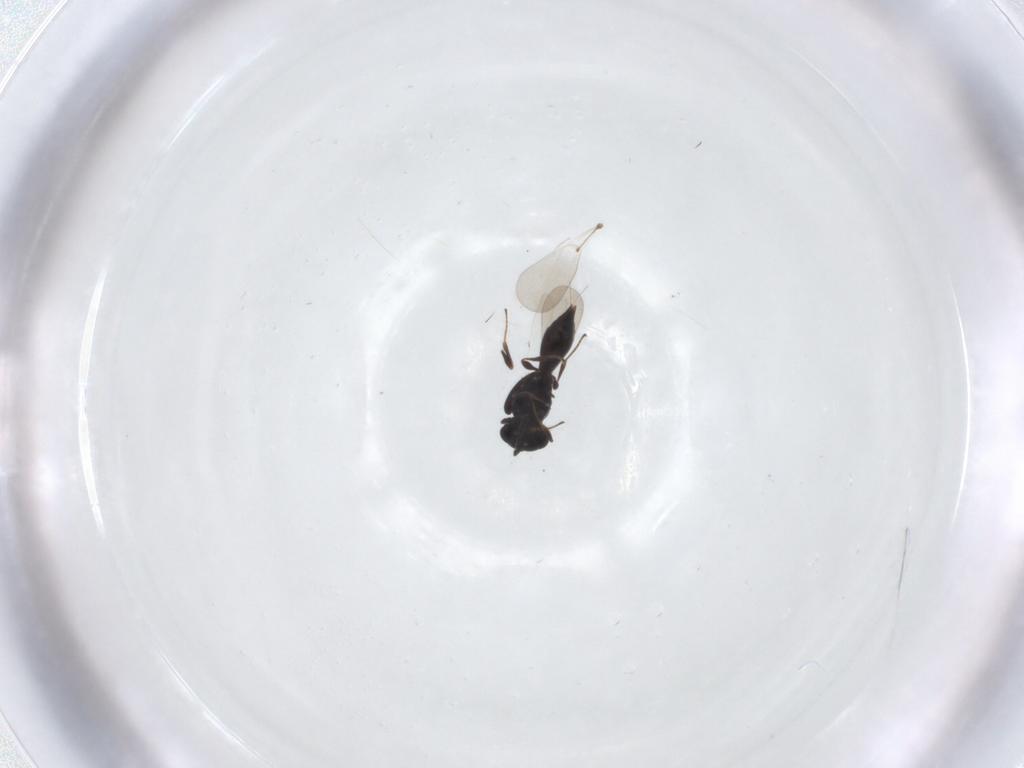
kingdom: Animalia
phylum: Arthropoda
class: Insecta
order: Hymenoptera
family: Platygastridae
